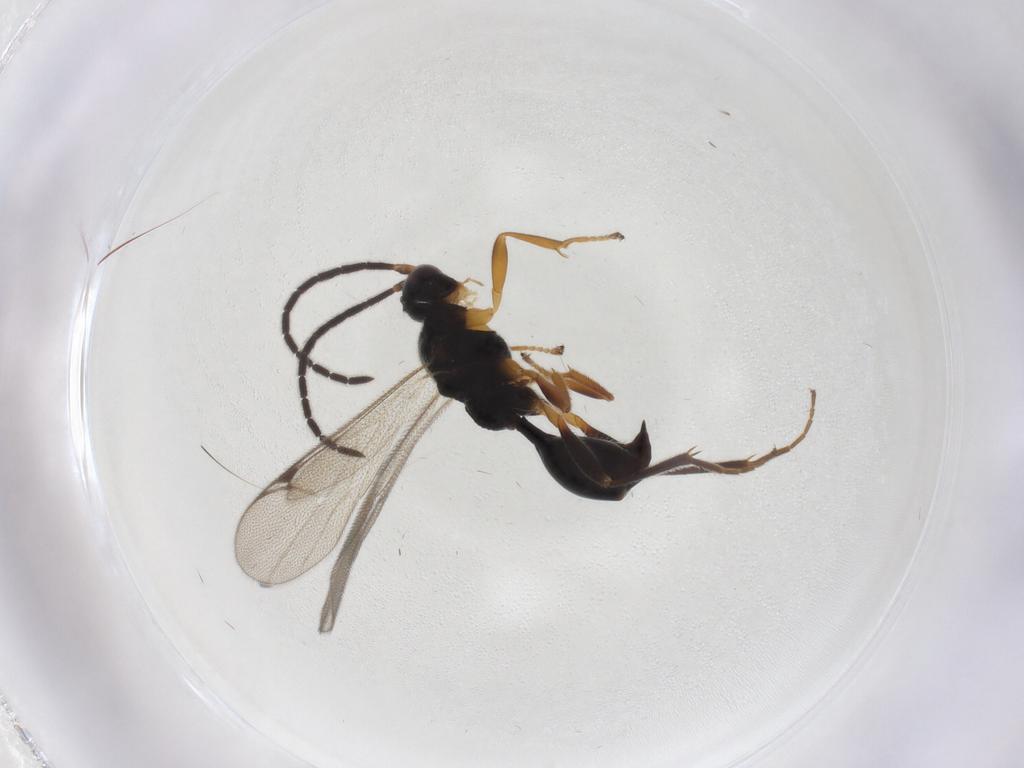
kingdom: Animalia
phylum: Arthropoda
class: Insecta
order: Hymenoptera
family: Proctotrupidae
